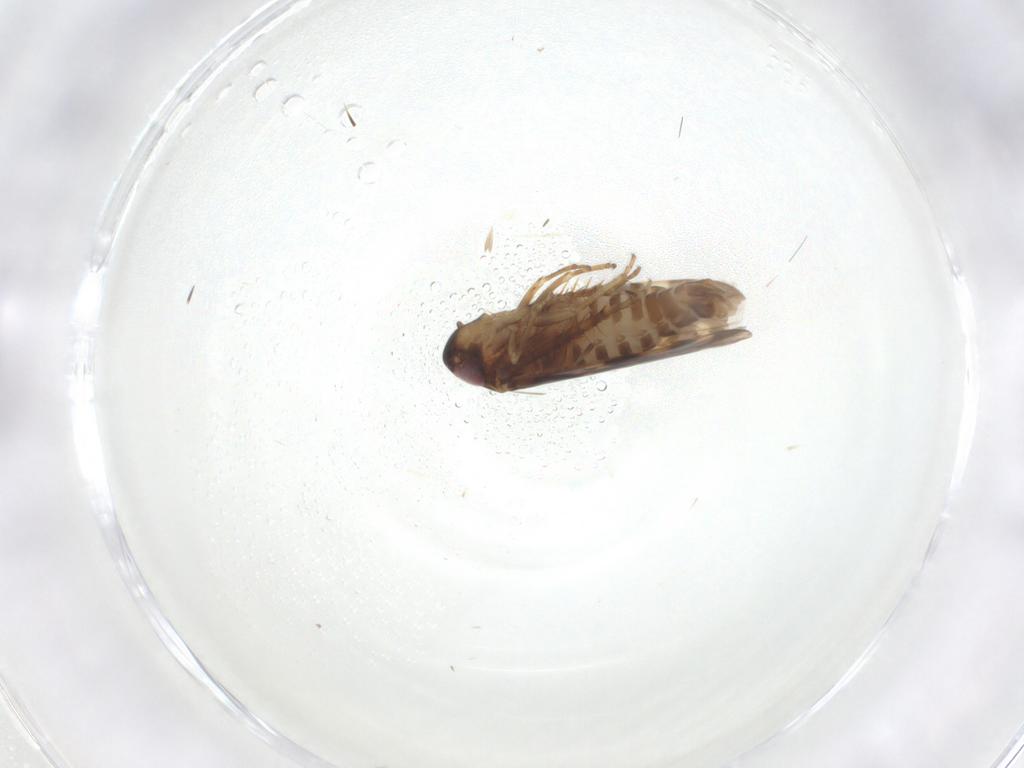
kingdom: Animalia
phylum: Arthropoda
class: Insecta
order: Hemiptera
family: Cicadellidae
